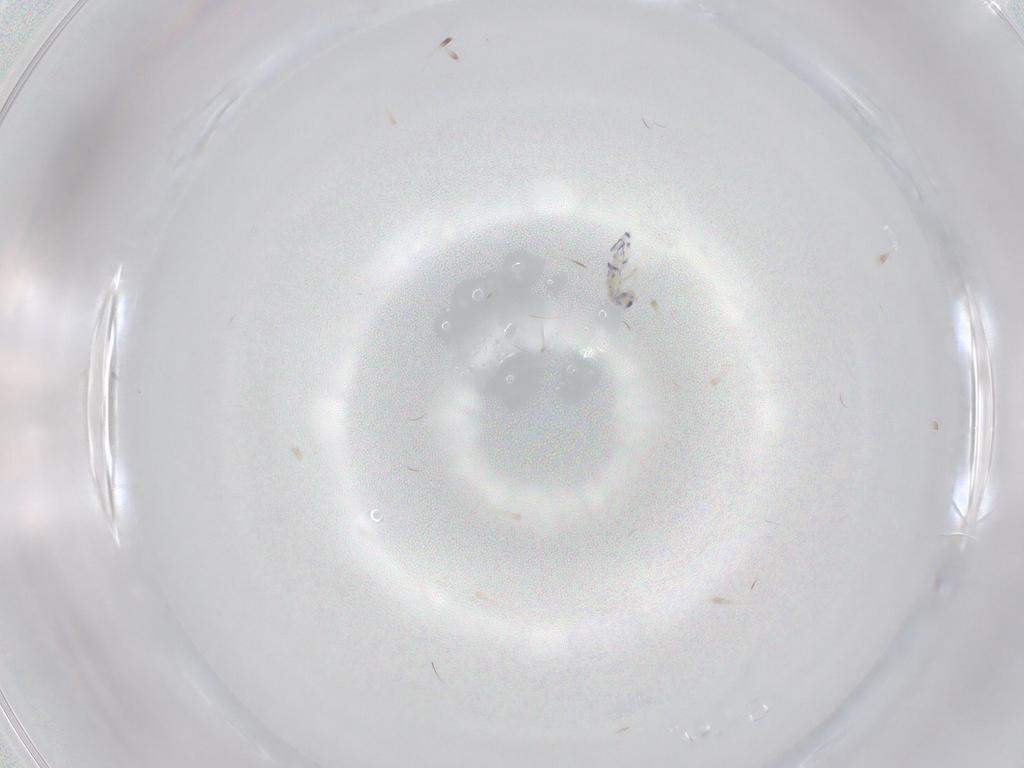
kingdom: Animalia
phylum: Arthropoda
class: Collembola
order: Entomobryomorpha
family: Entomobryidae
